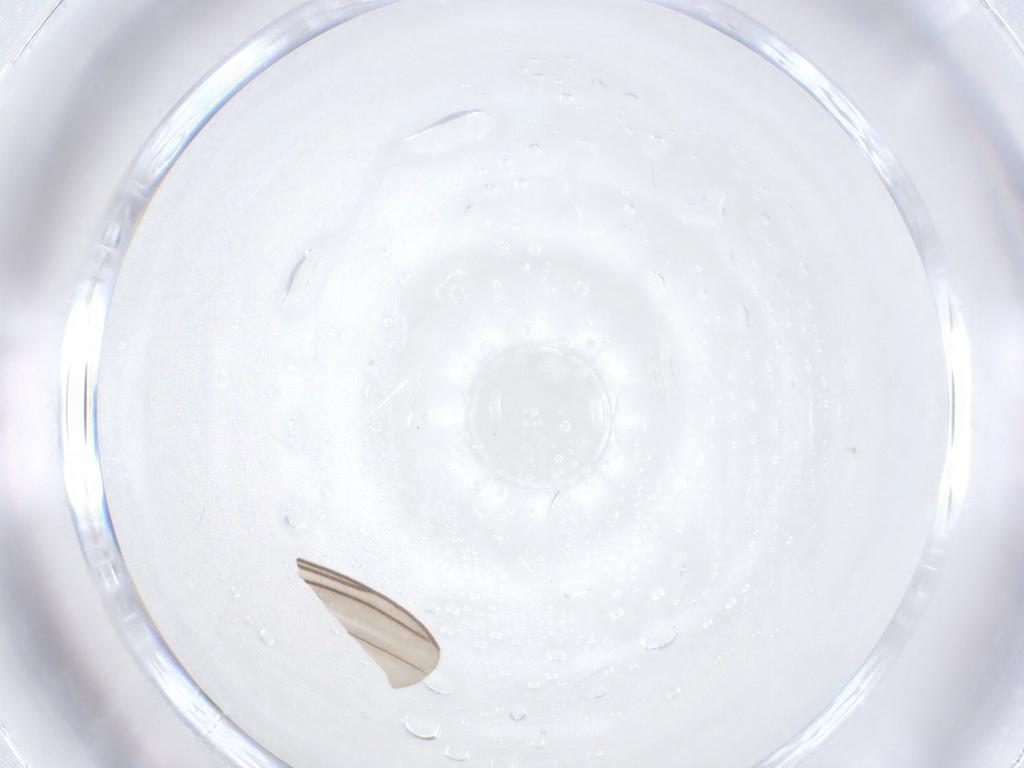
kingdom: Animalia
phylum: Arthropoda
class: Insecta
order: Diptera
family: Mycetophilidae
